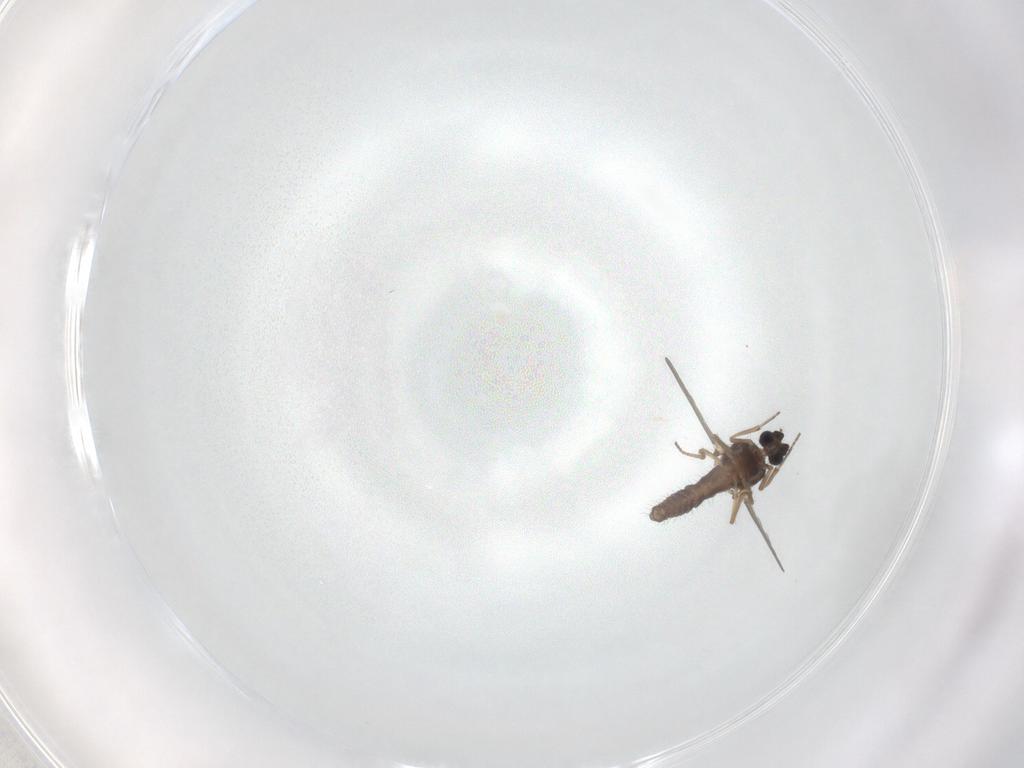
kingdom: Animalia
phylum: Arthropoda
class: Insecta
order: Diptera
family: Ceratopogonidae
